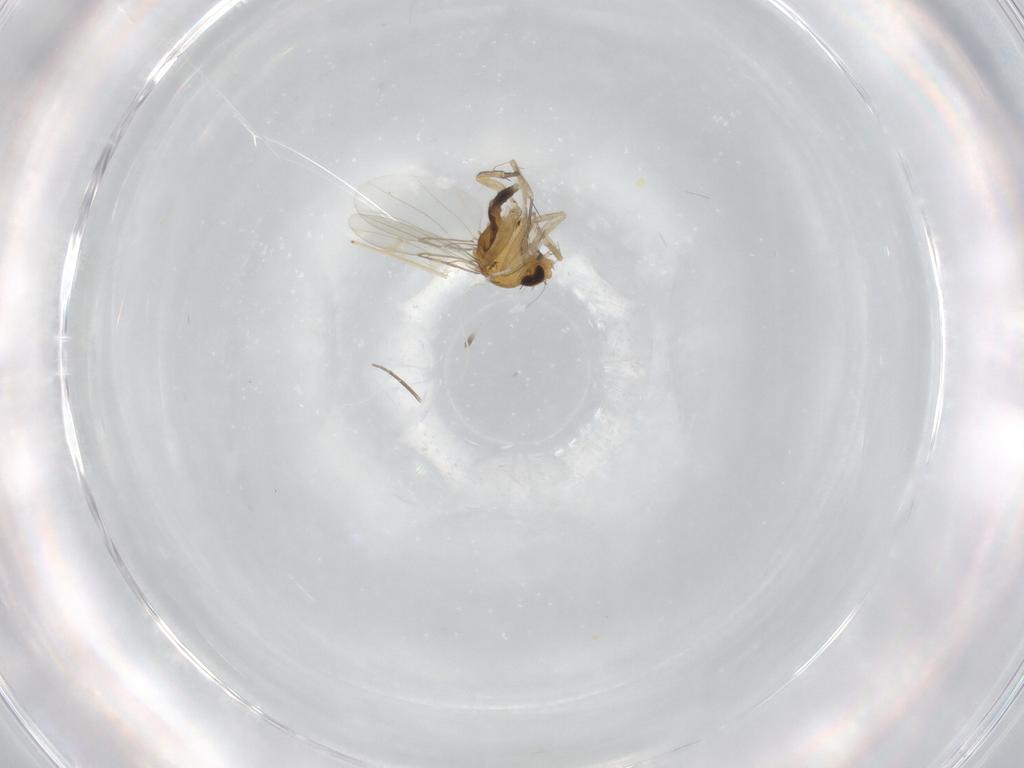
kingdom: Animalia
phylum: Arthropoda
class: Insecta
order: Diptera
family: Phoridae
